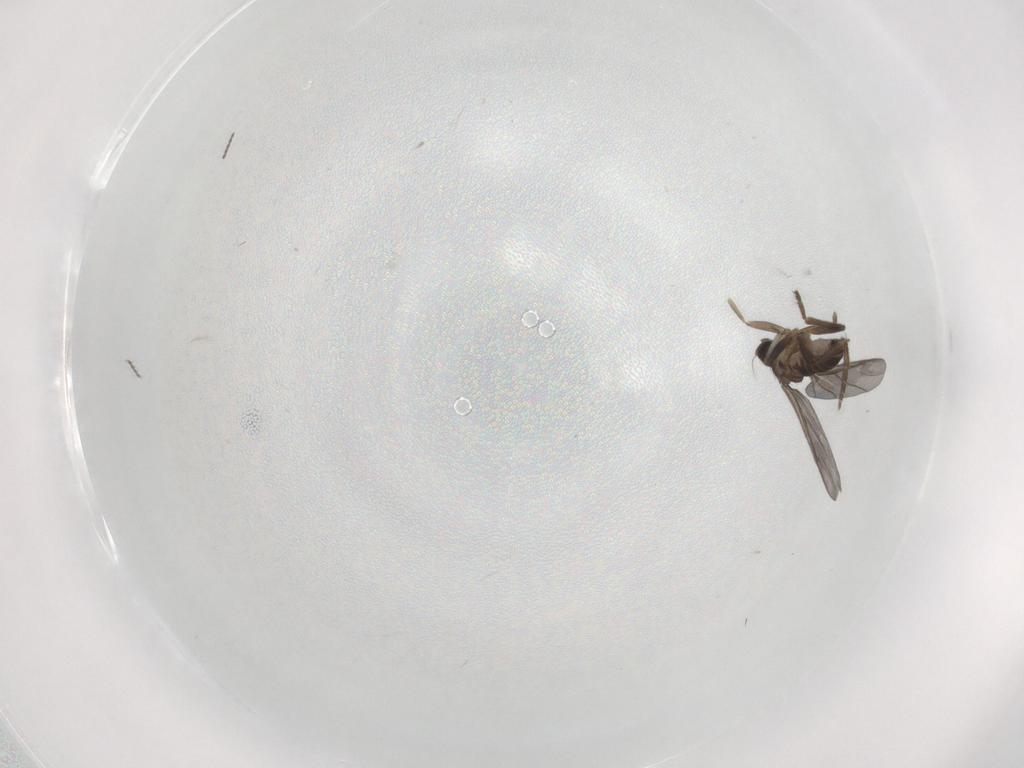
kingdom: Animalia
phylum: Arthropoda
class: Insecta
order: Diptera
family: Phoridae
